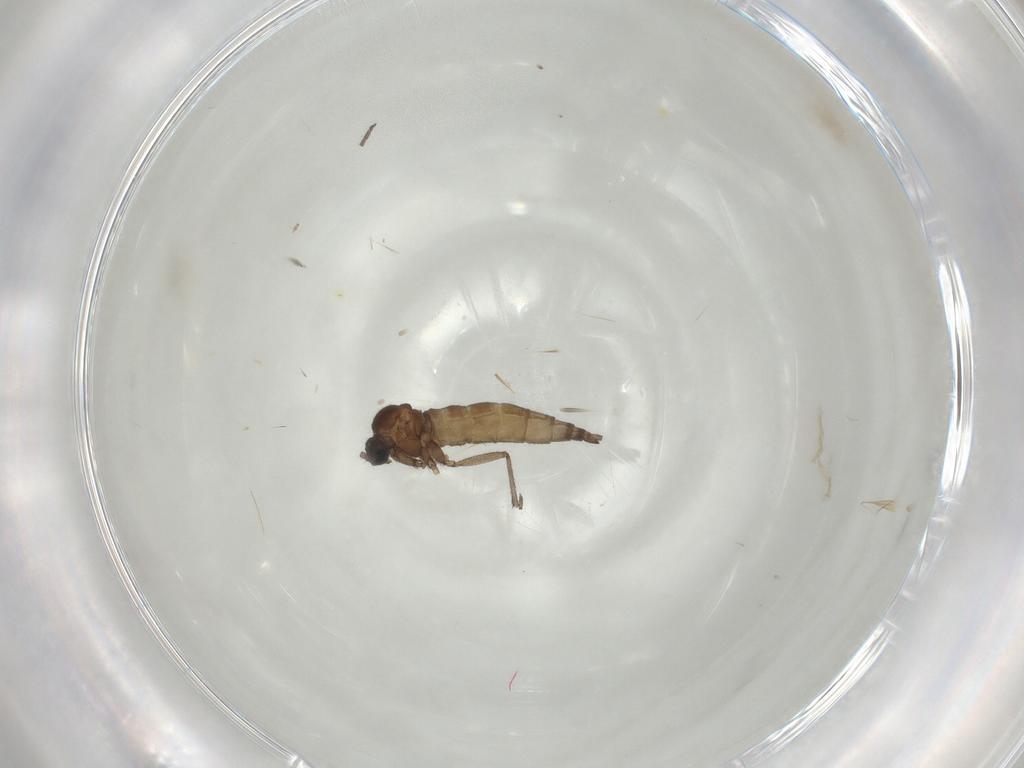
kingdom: Animalia
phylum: Arthropoda
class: Insecta
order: Diptera
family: Sciaridae
